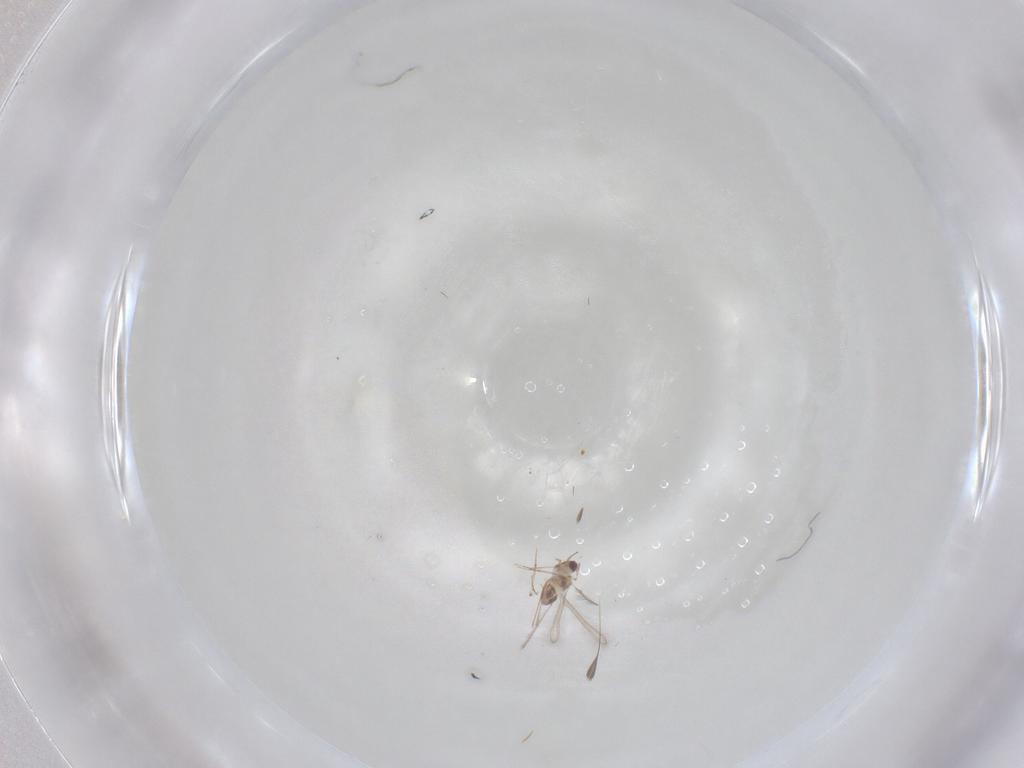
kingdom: Animalia
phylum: Arthropoda
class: Insecta
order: Hymenoptera
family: Mymaridae
